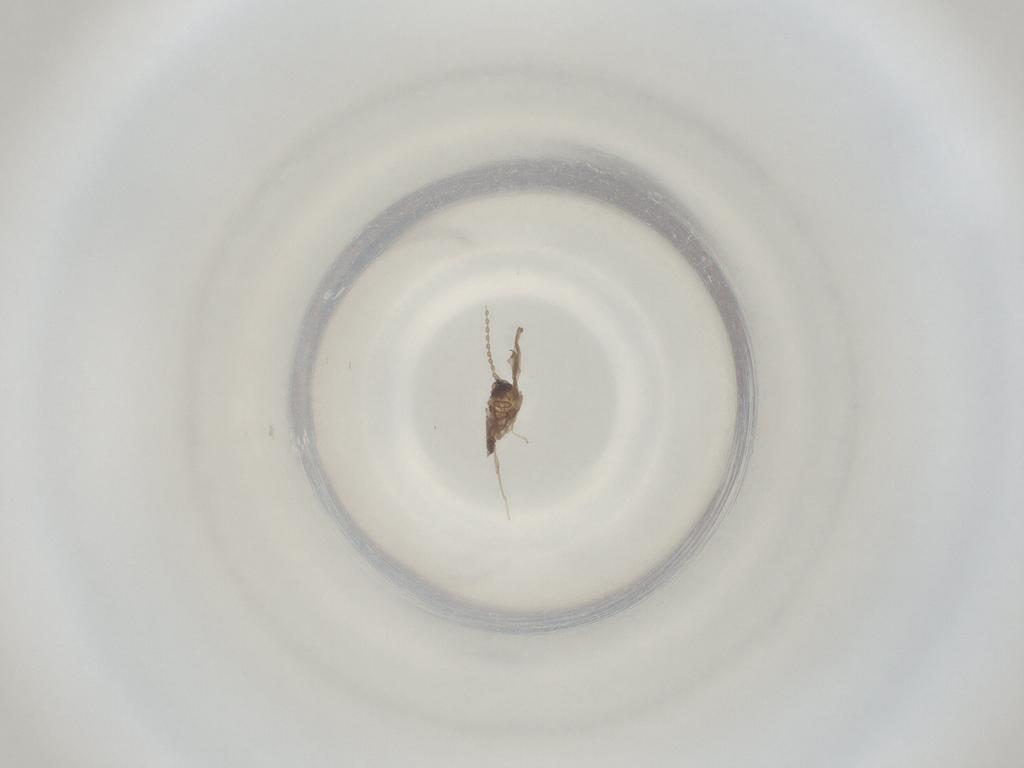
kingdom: Animalia
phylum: Arthropoda
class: Insecta
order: Diptera
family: Cecidomyiidae
